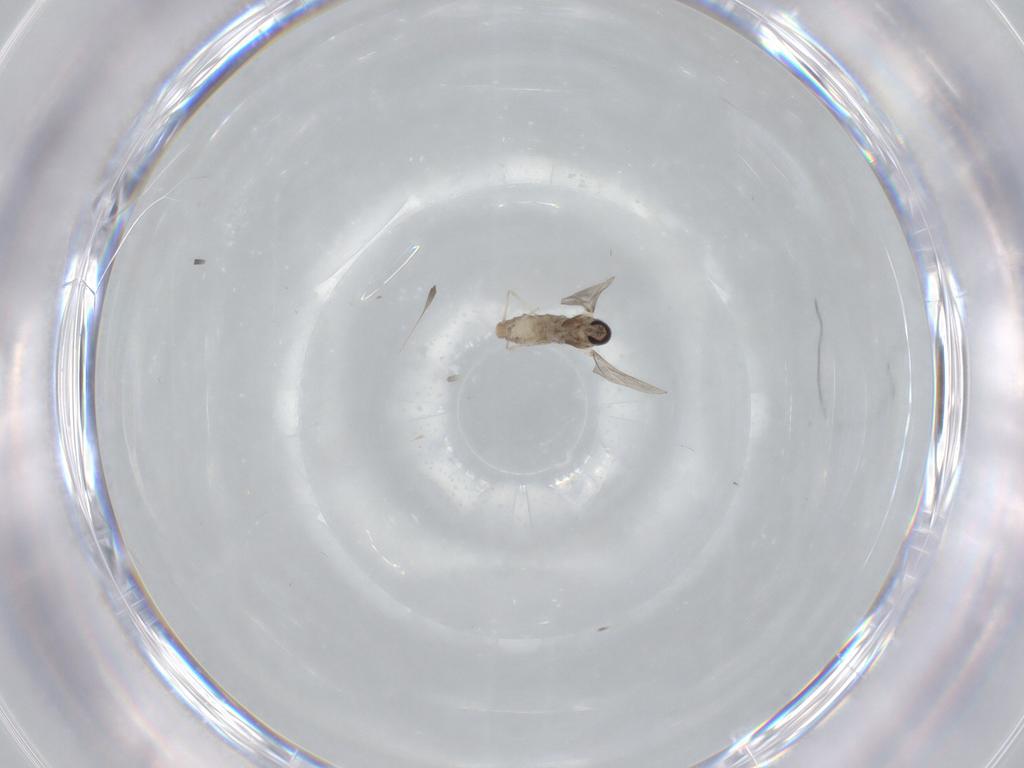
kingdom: Animalia
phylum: Arthropoda
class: Insecta
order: Diptera
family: Cecidomyiidae
